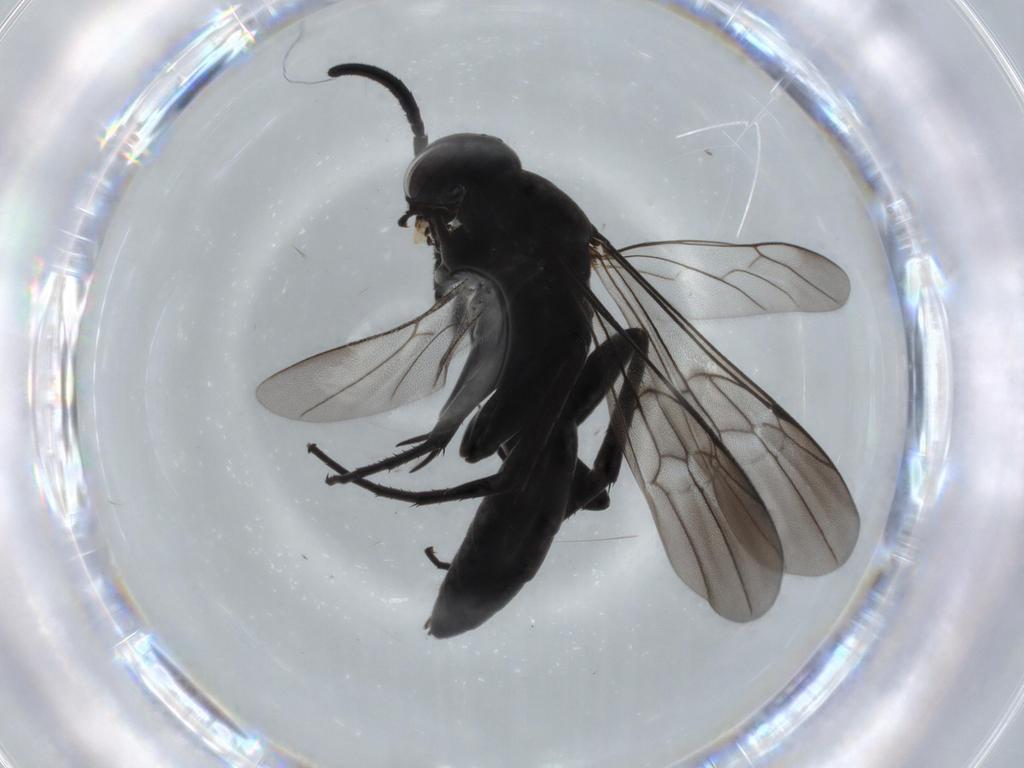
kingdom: Animalia
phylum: Arthropoda
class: Insecta
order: Hymenoptera
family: Pompilidae
